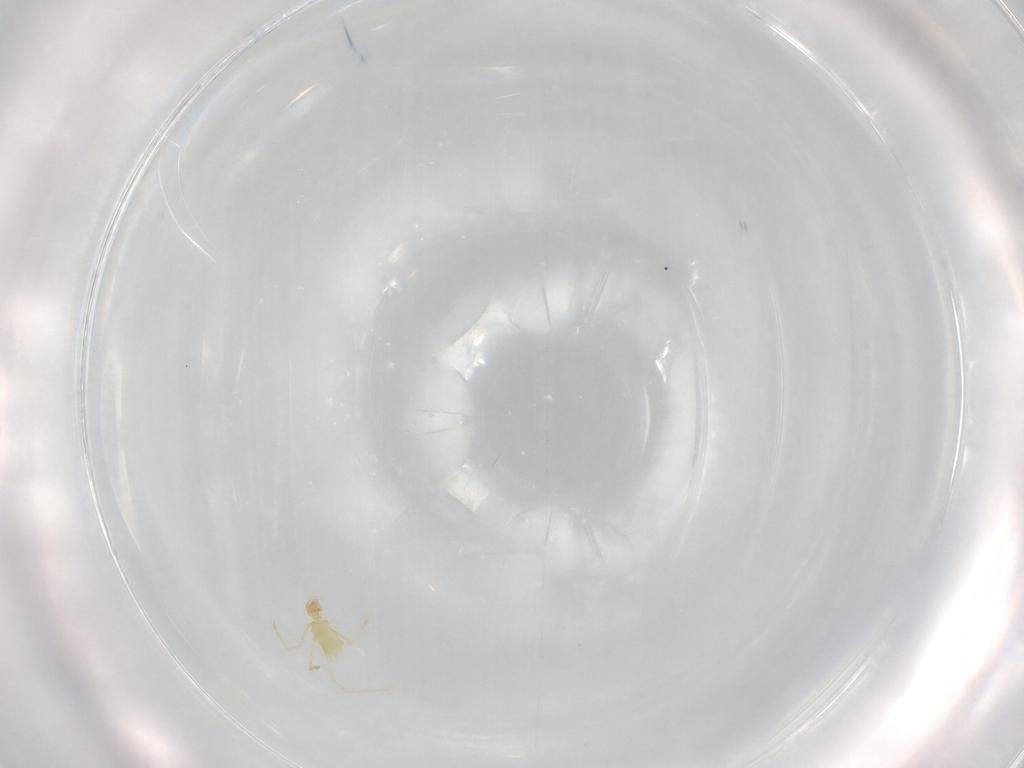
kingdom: Animalia
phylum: Arthropoda
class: Arachnida
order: Trombidiformes
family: Erythraeidae
